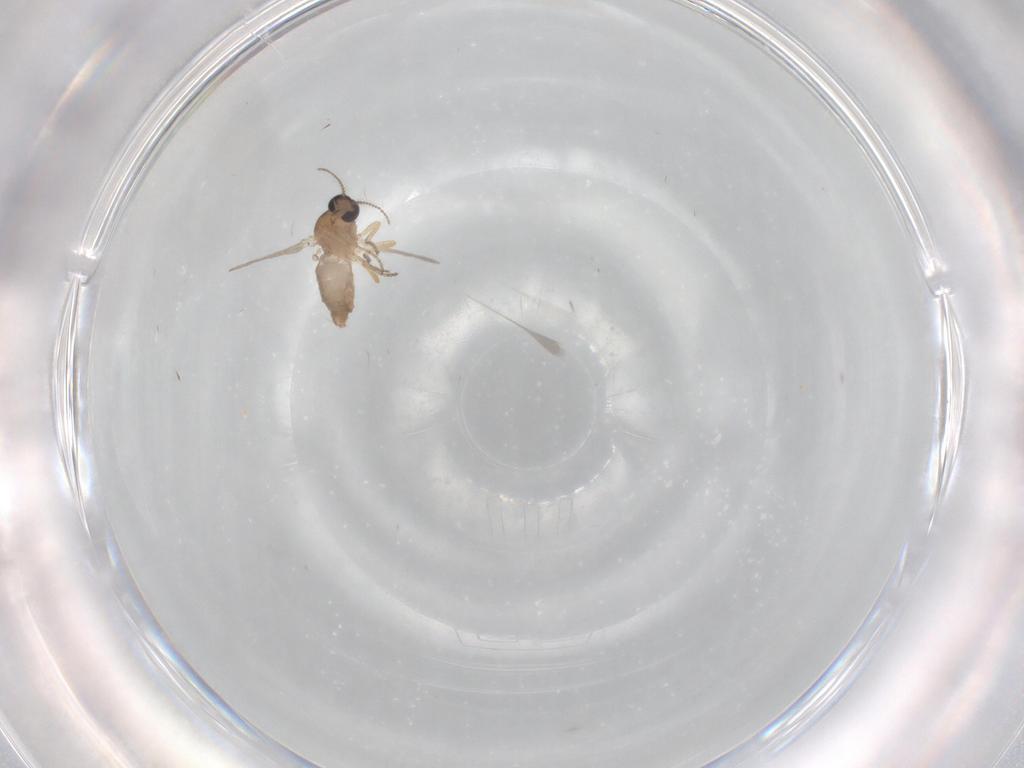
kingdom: Animalia
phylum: Arthropoda
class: Insecta
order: Diptera
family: Ceratopogonidae
